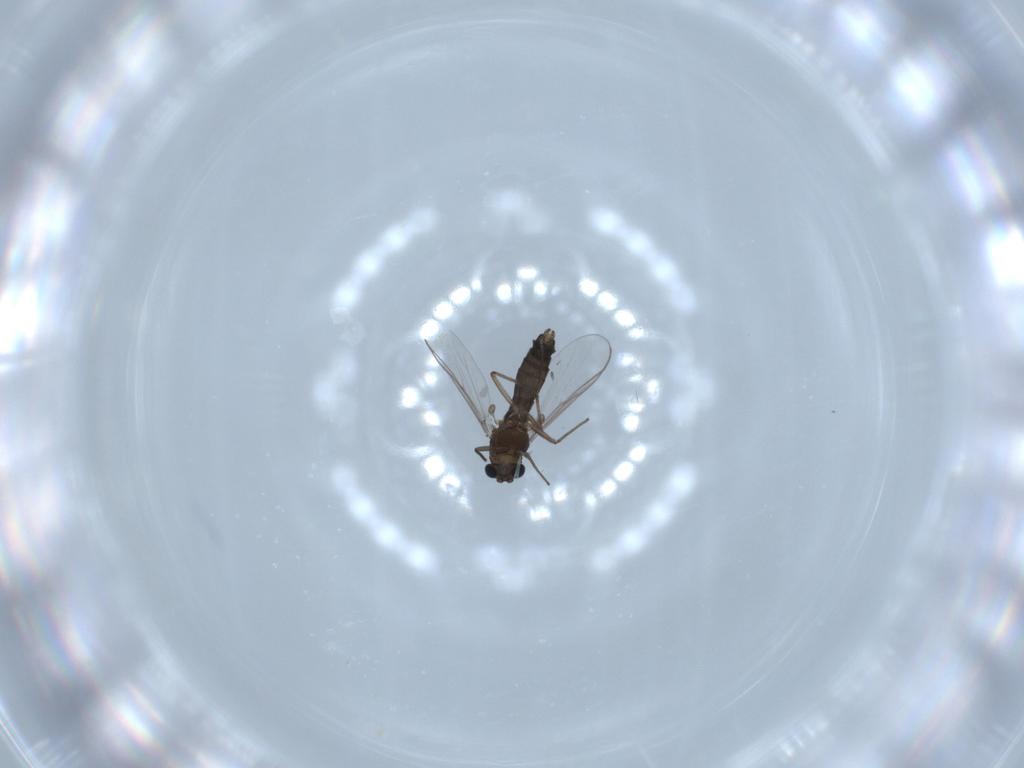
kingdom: Animalia
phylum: Arthropoda
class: Insecta
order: Diptera
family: Chironomidae
